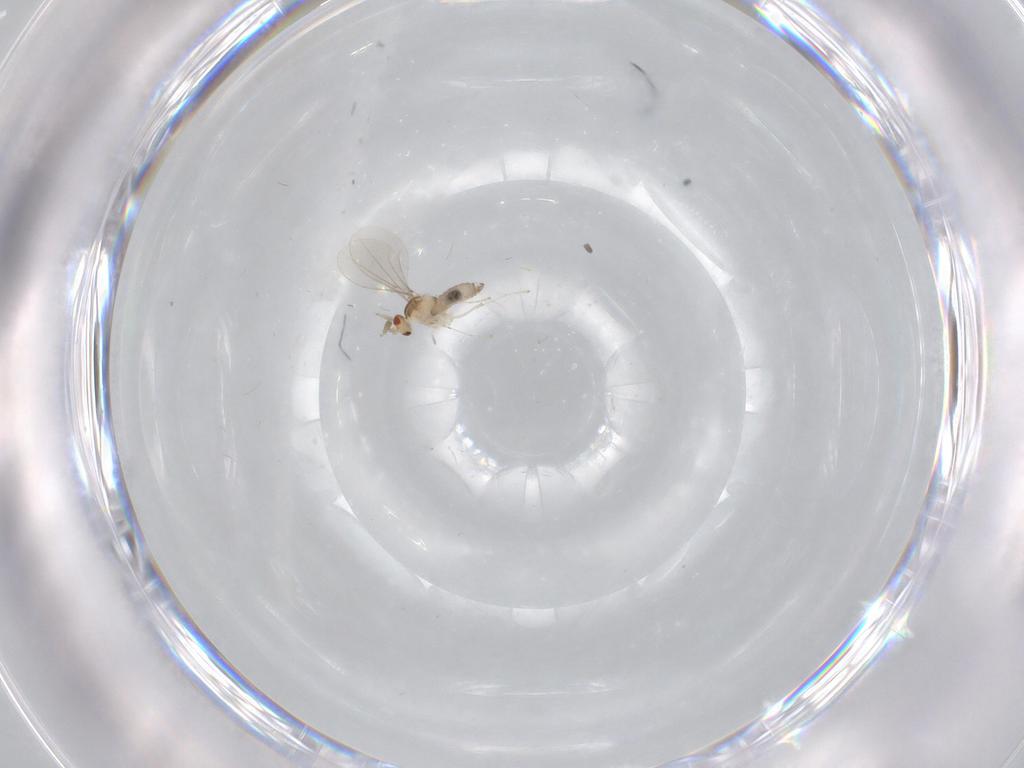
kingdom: Animalia
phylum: Arthropoda
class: Insecta
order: Diptera
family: Cecidomyiidae
